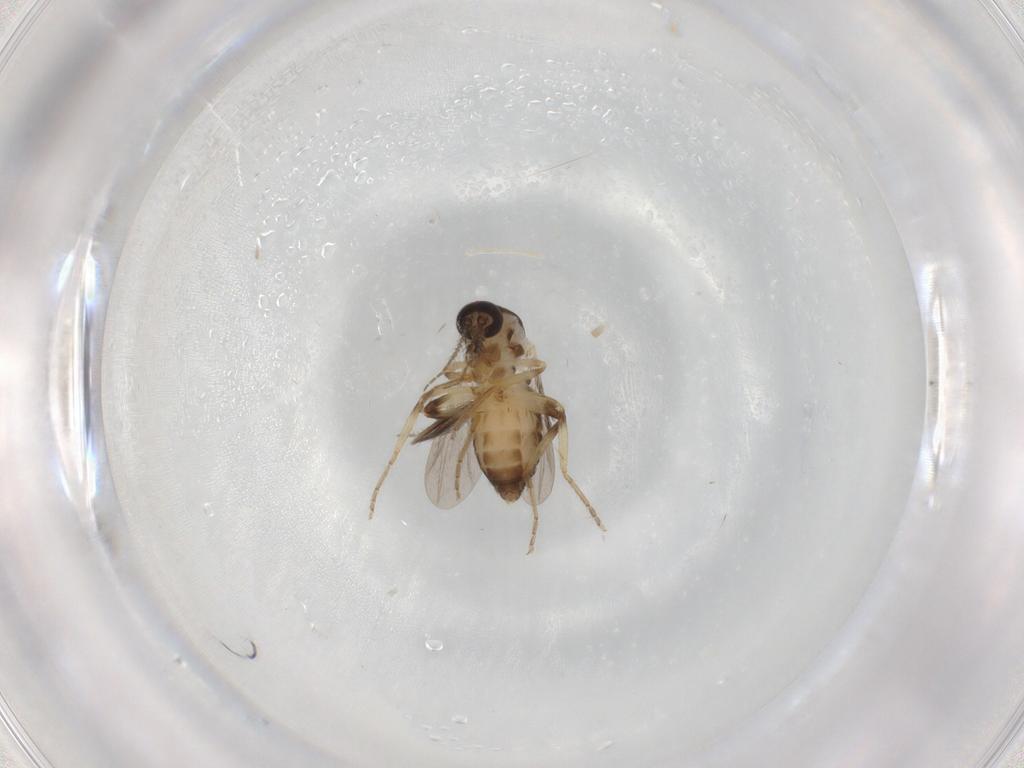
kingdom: Animalia
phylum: Arthropoda
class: Insecta
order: Diptera
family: Ceratopogonidae
